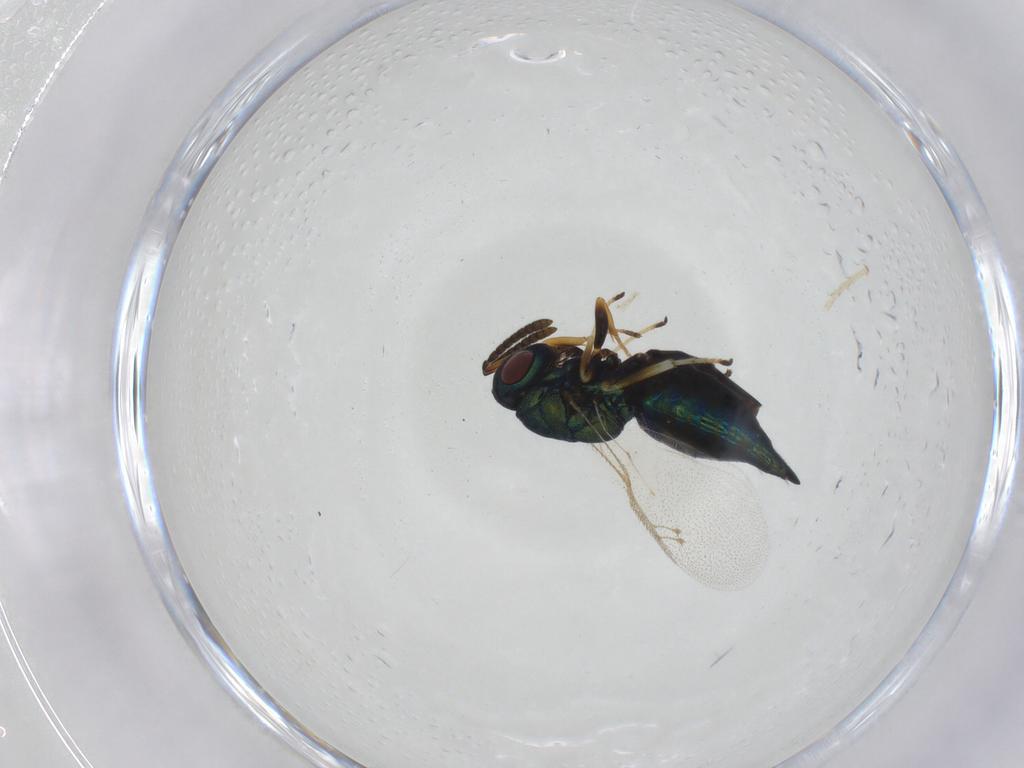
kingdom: Animalia
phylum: Arthropoda
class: Insecta
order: Hymenoptera
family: Pteromalidae
